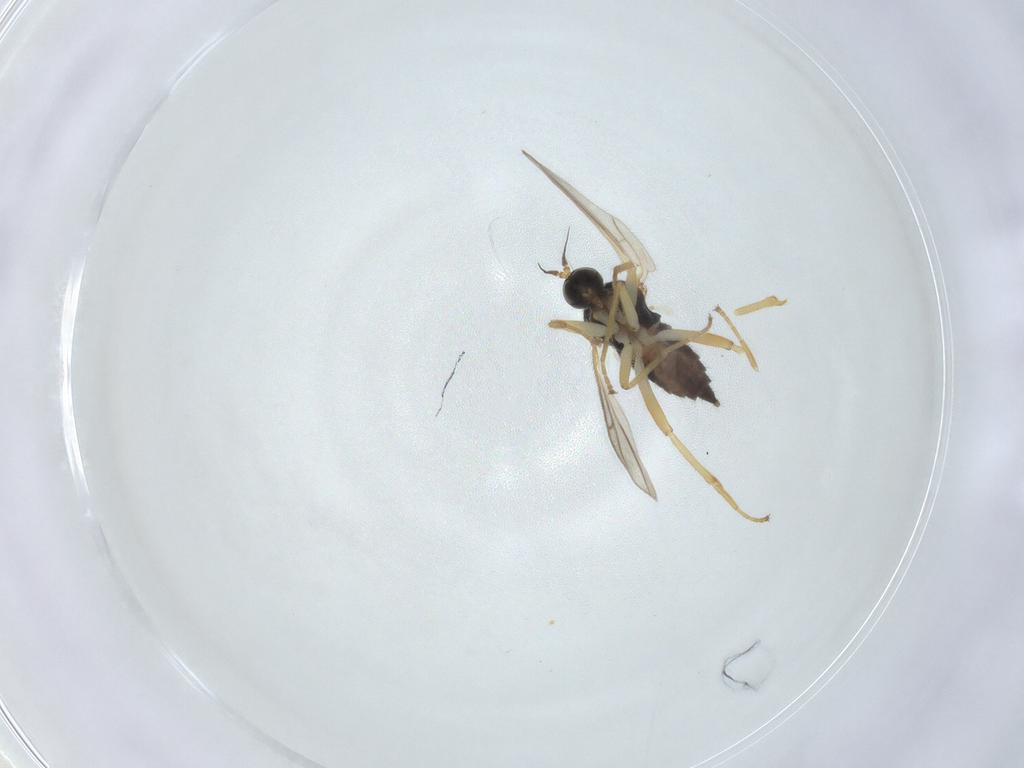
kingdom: Animalia
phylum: Arthropoda
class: Insecta
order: Diptera
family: Hybotidae
